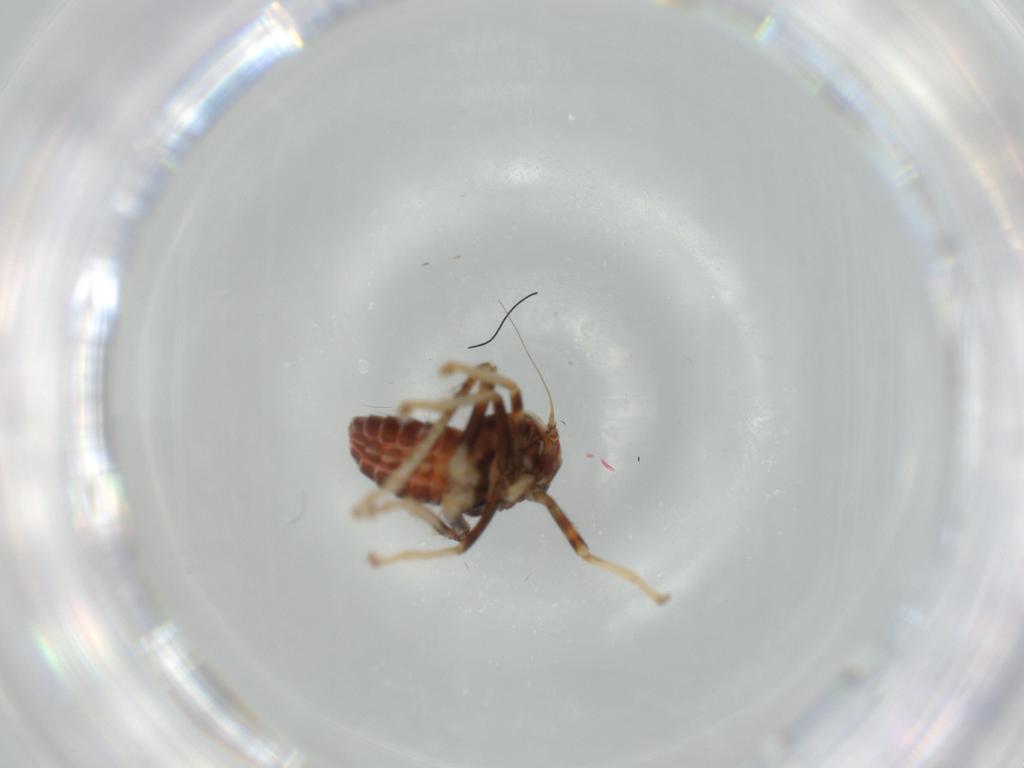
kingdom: Animalia
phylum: Arthropoda
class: Insecta
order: Hemiptera
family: Cicadellidae
